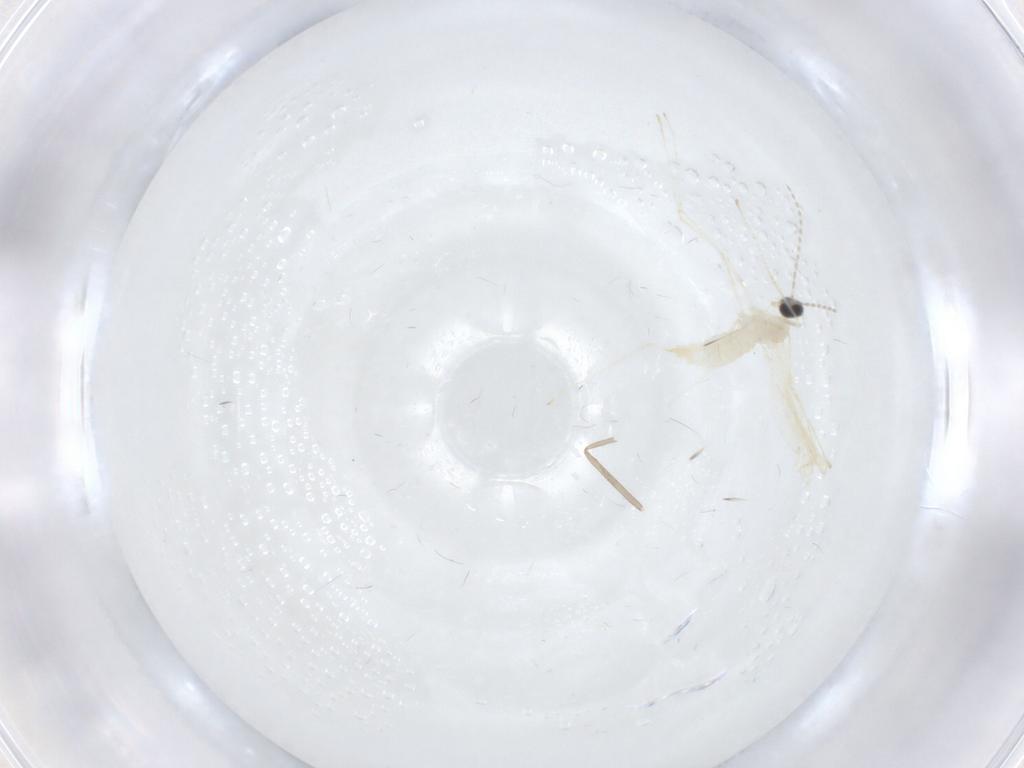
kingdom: Animalia
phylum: Arthropoda
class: Insecta
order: Diptera
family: Cecidomyiidae
